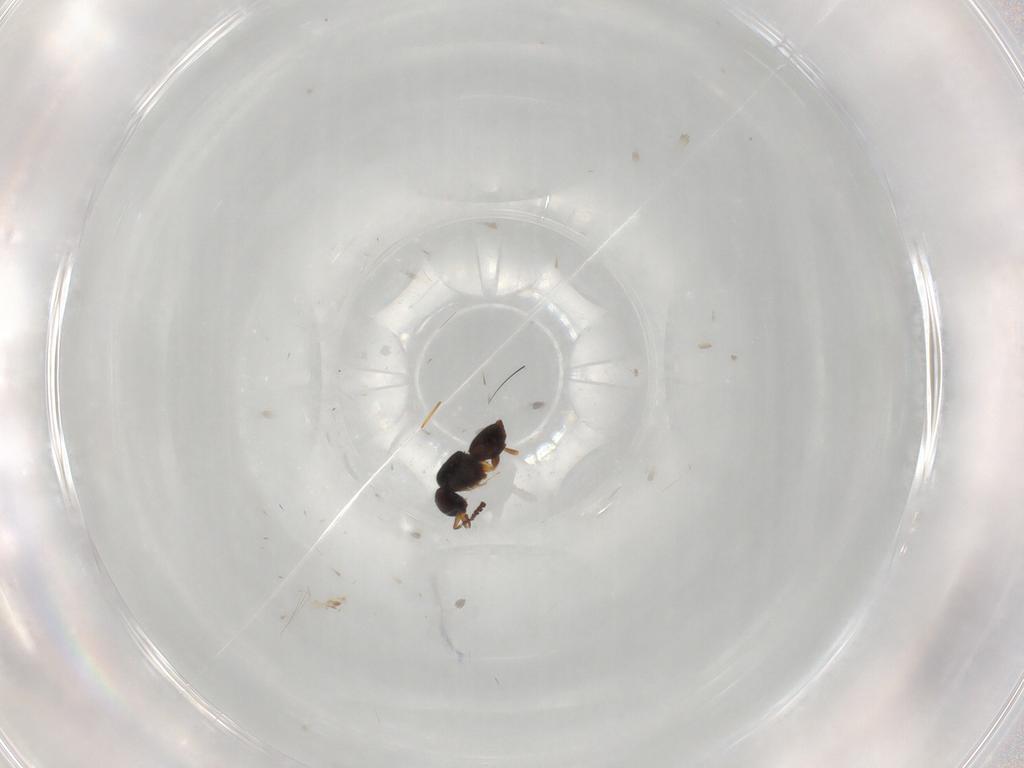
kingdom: Animalia
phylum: Arthropoda
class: Insecta
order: Hymenoptera
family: Ceraphronidae
